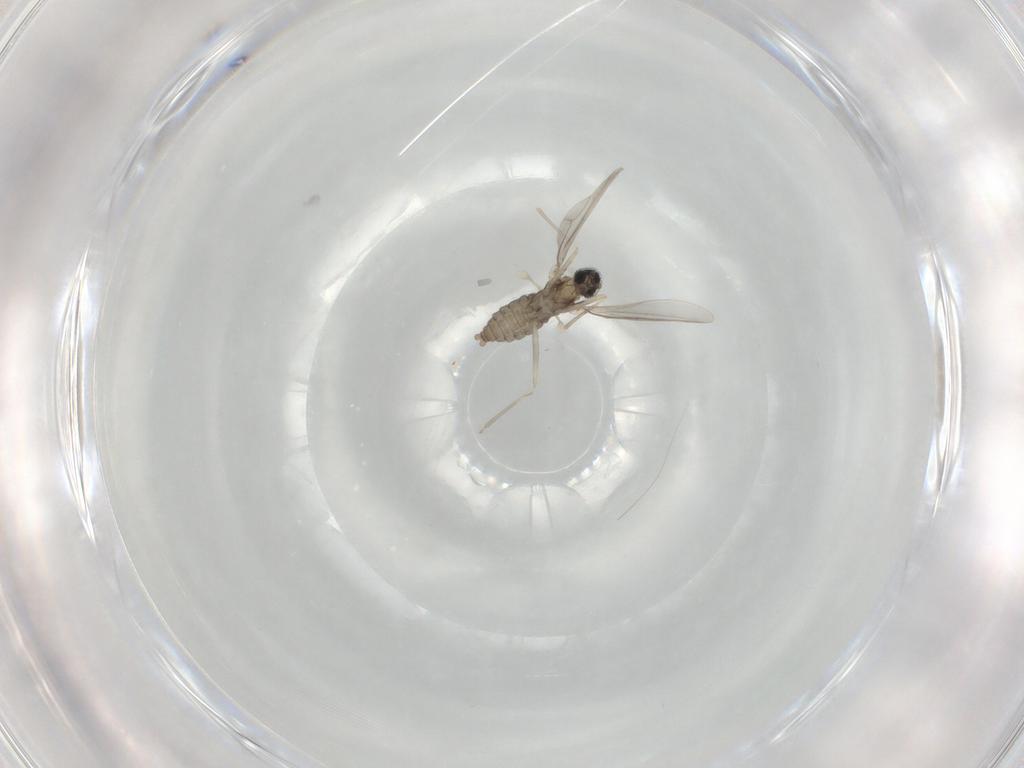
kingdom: Animalia
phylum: Arthropoda
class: Insecta
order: Diptera
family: Cecidomyiidae
